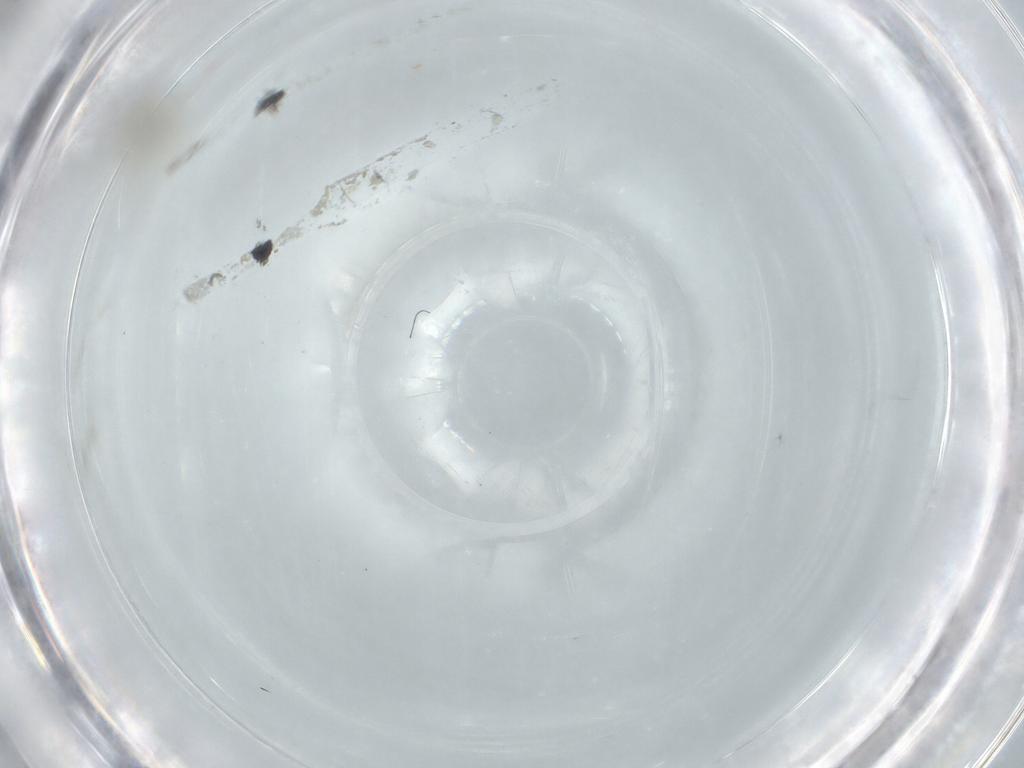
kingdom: Animalia
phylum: Arthropoda
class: Insecta
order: Diptera
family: Cecidomyiidae
